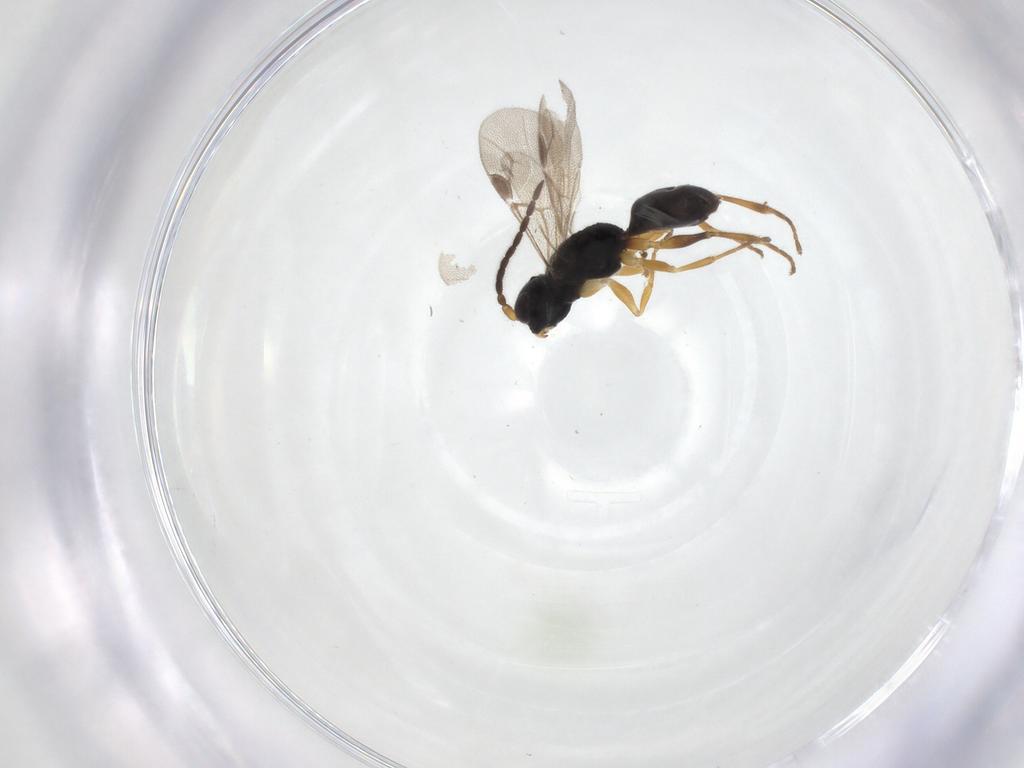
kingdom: Animalia
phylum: Arthropoda
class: Insecta
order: Hymenoptera
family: Dryinidae
